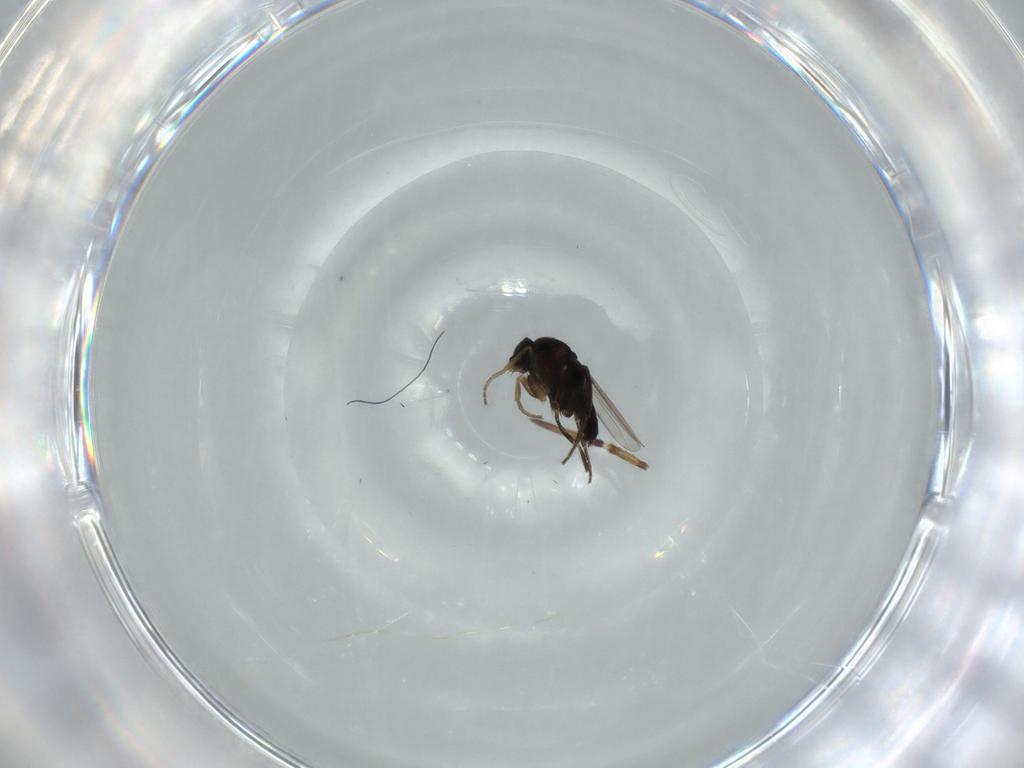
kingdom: Animalia
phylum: Arthropoda
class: Insecta
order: Diptera
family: Phoridae
